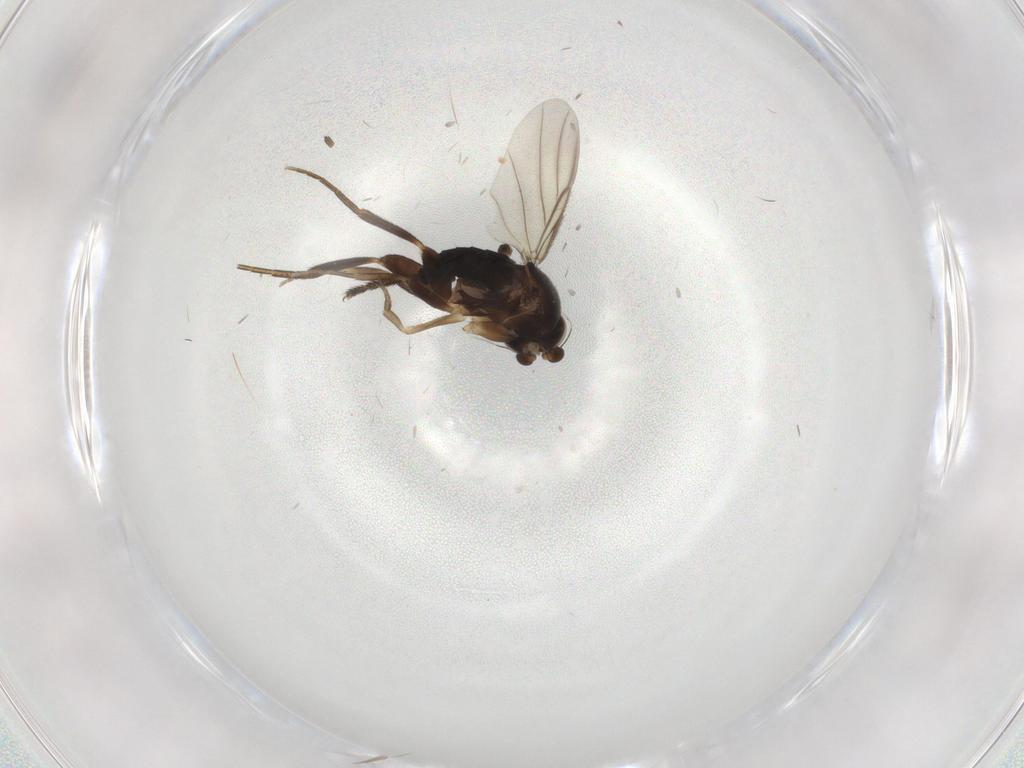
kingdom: Animalia
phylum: Arthropoda
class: Insecta
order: Diptera
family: Dolichopodidae
